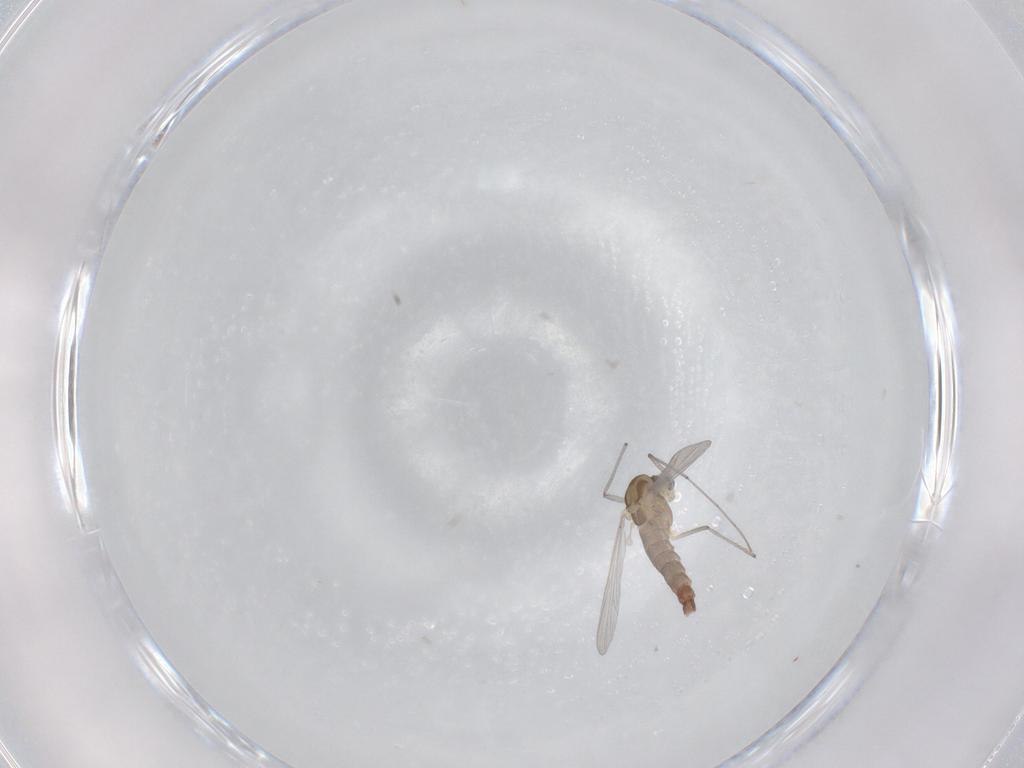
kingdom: Animalia
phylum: Arthropoda
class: Insecta
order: Diptera
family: Chironomidae
